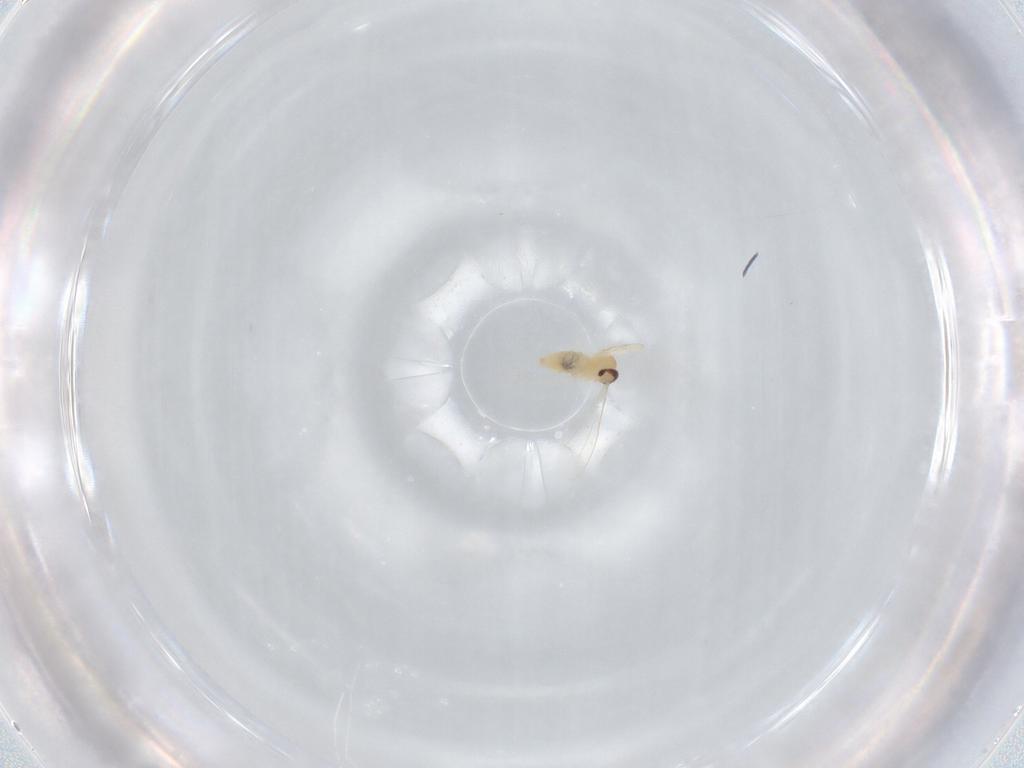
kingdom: Animalia
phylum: Arthropoda
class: Insecta
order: Diptera
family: Cecidomyiidae
